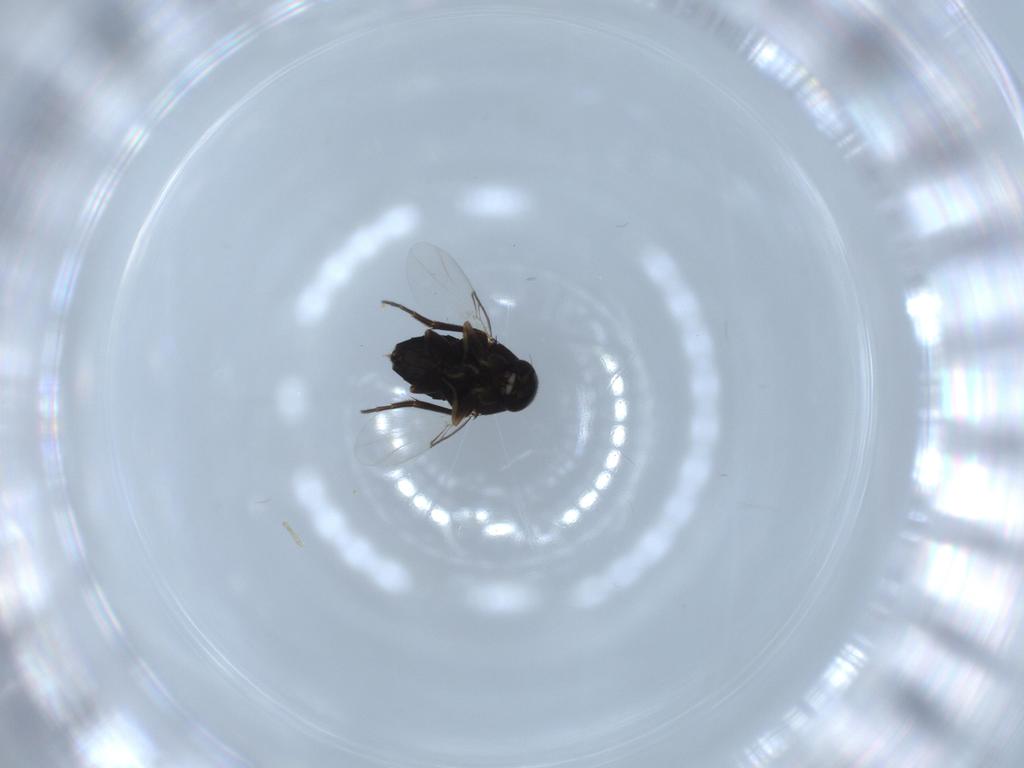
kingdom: Animalia
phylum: Arthropoda
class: Insecta
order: Diptera
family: Phoridae
